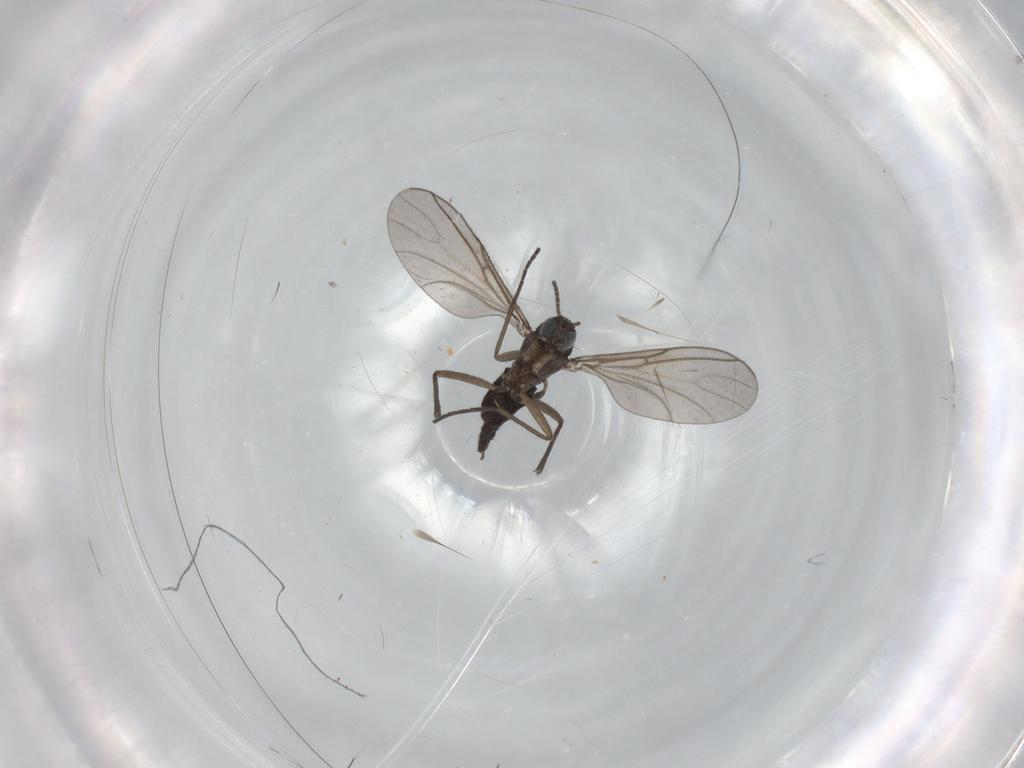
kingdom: Animalia
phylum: Arthropoda
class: Insecta
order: Diptera
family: Sciaridae
